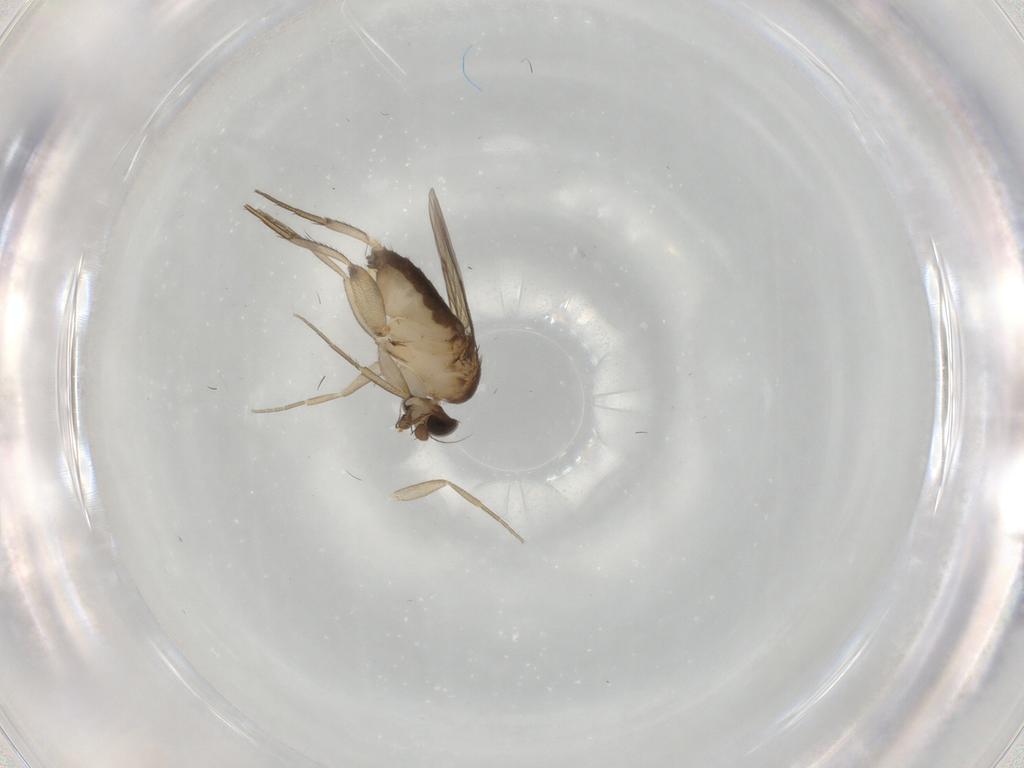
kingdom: Animalia
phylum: Arthropoda
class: Insecta
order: Diptera
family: Phoridae
